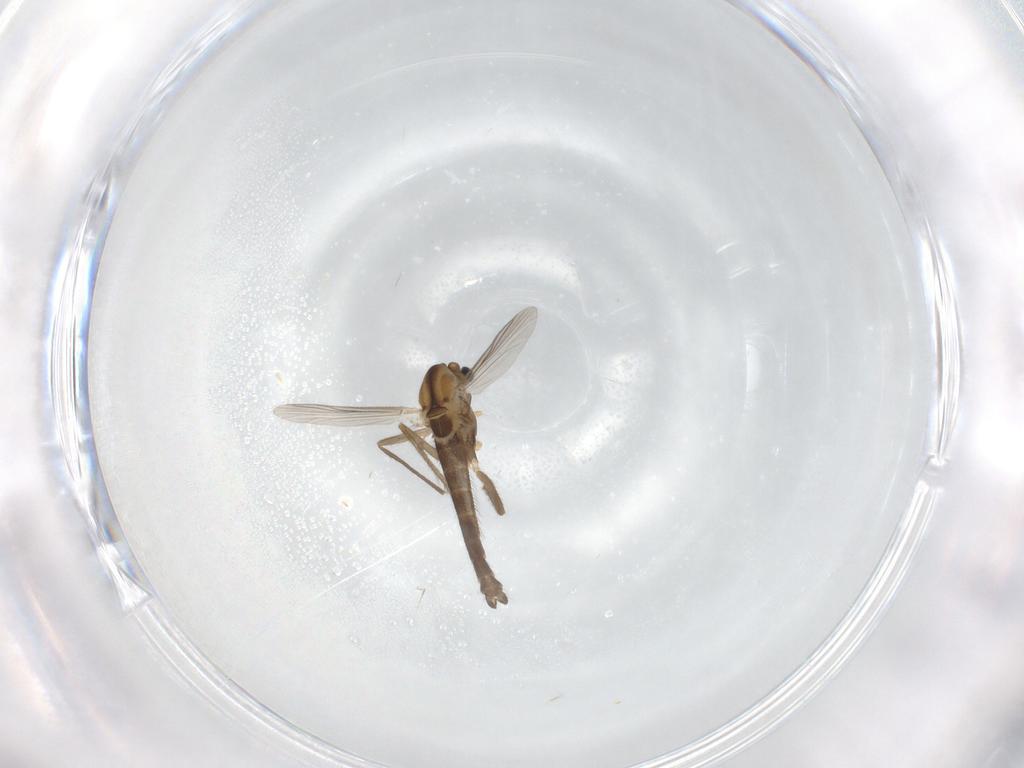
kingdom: Animalia
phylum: Arthropoda
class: Insecta
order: Diptera
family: Chironomidae
